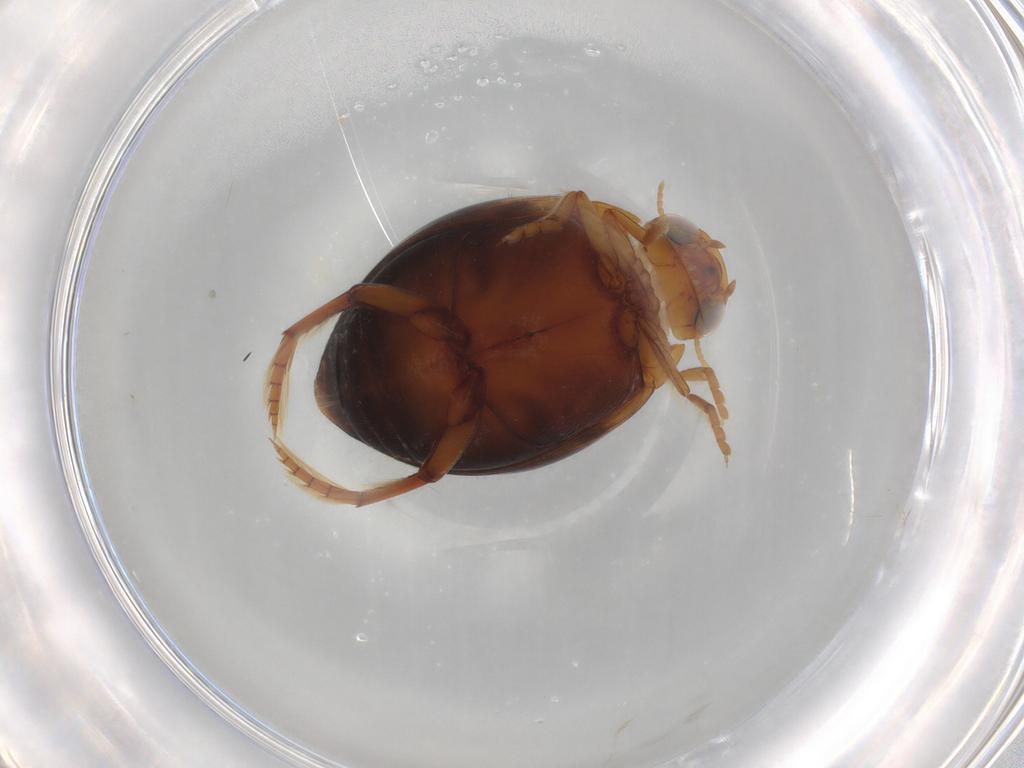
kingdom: Animalia
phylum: Arthropoda
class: Insecta
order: Coleoptera
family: Dytiscidae
